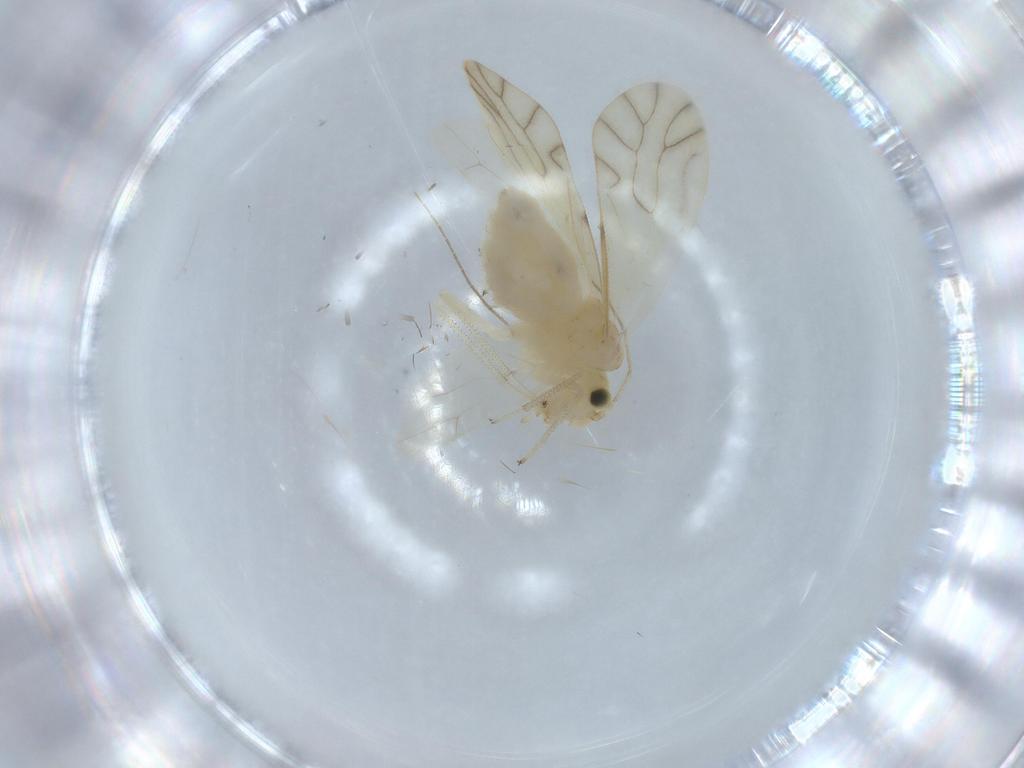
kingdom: Animalia
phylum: Arthropoda
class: Insecta
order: Psocodea
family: Caeciliusidae
